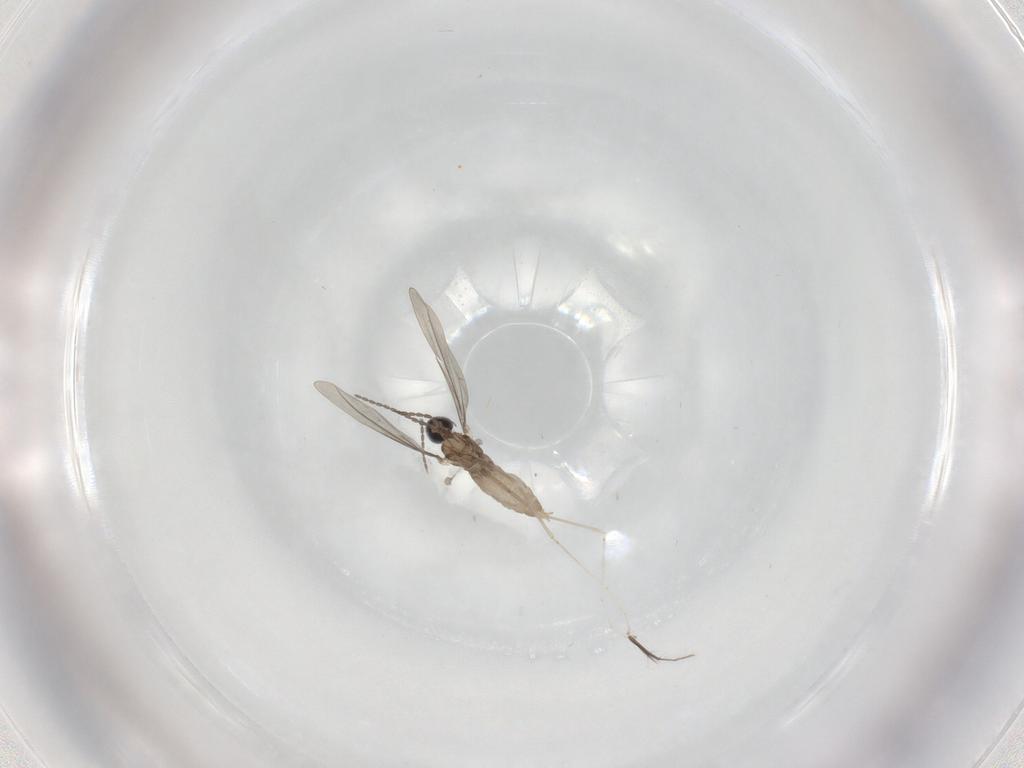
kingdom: Animalia
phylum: Arthropoda
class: Insecta
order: Diptera
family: Cecidomyiidae
